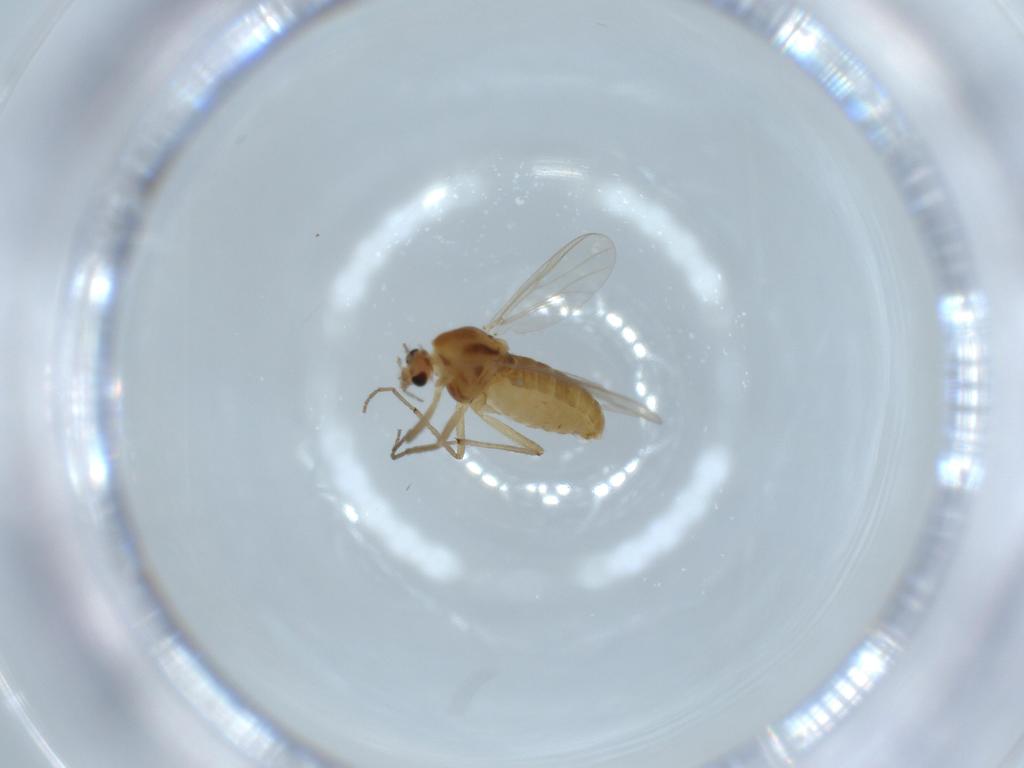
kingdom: Animalia
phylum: Arthropoda
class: Insecta
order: Diptera
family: Chironomidae
